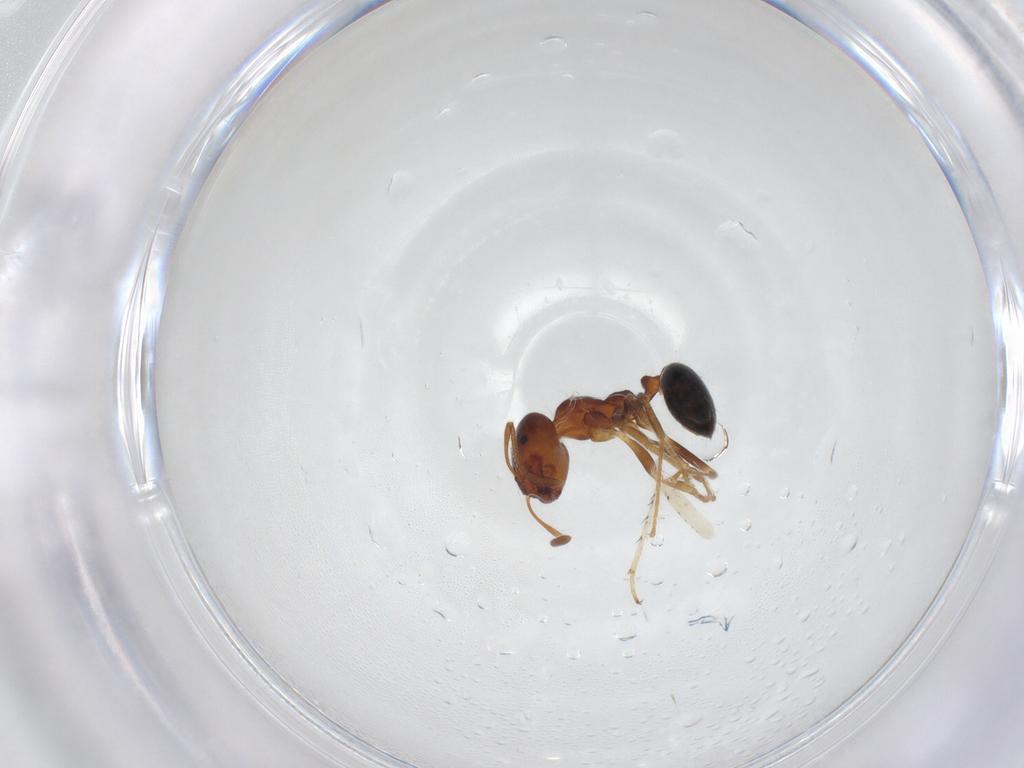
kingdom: Animalia
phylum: Arthropoda
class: Insecta
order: Hymenoptera
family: Formicidae
